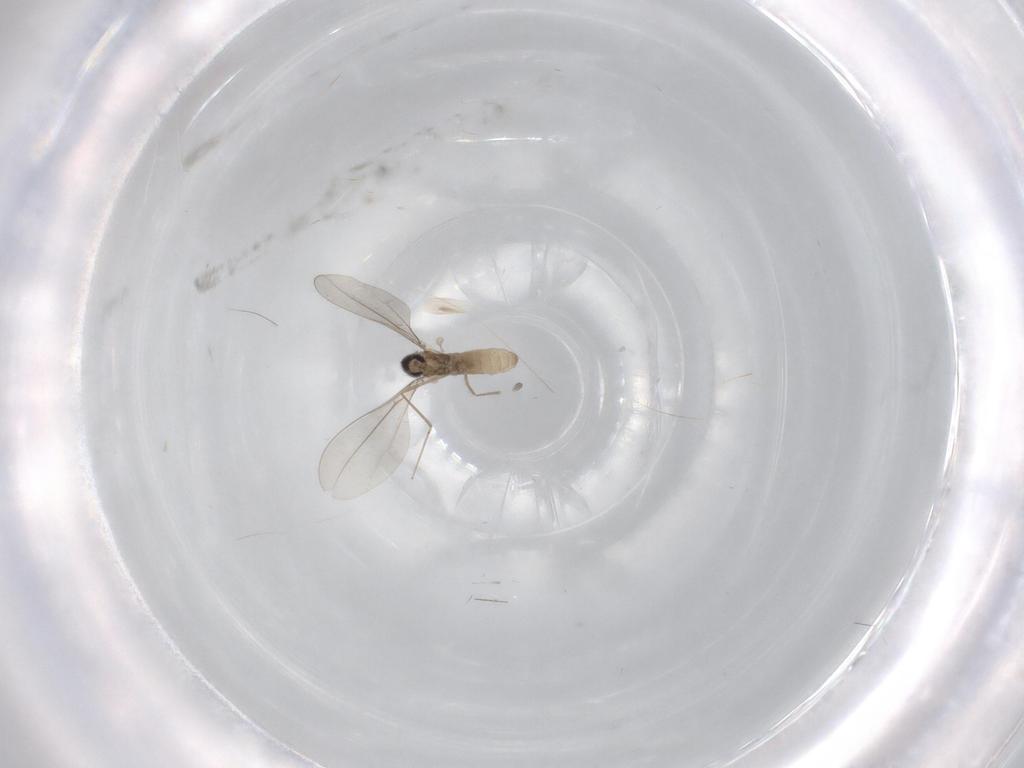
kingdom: Animalia
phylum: Arthropoda
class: Insecta
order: Diptera
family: Cecidomyiidae
